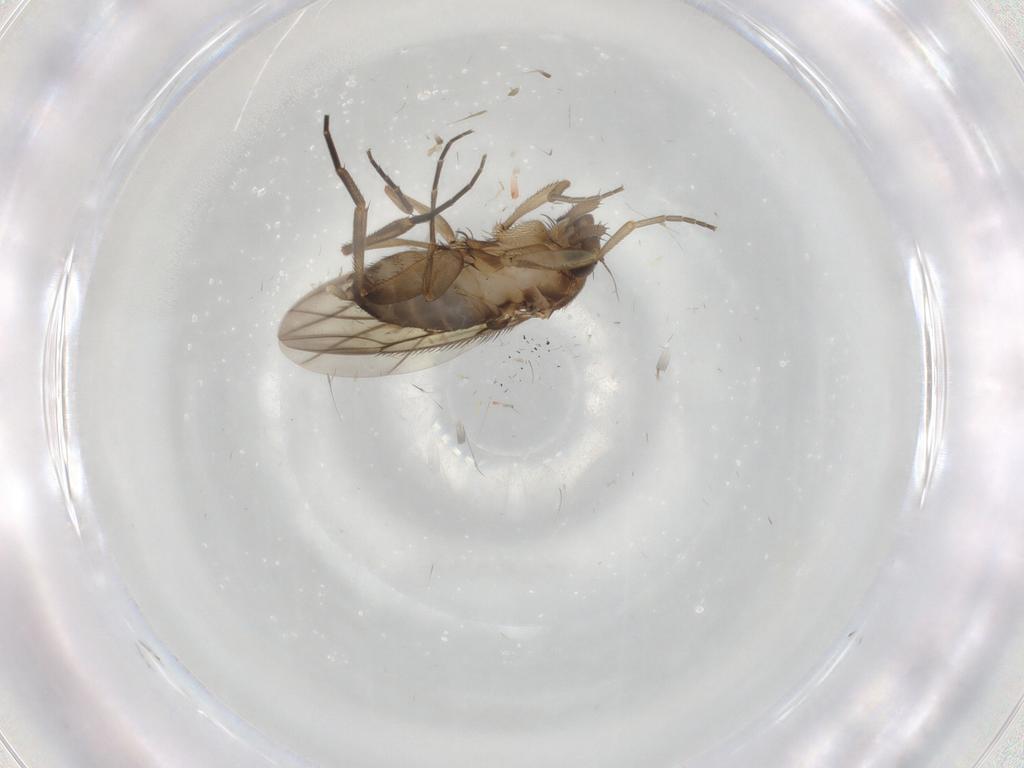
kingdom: Animalia
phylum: Arthropoda
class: Insecta
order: Diptera
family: Phoridae
